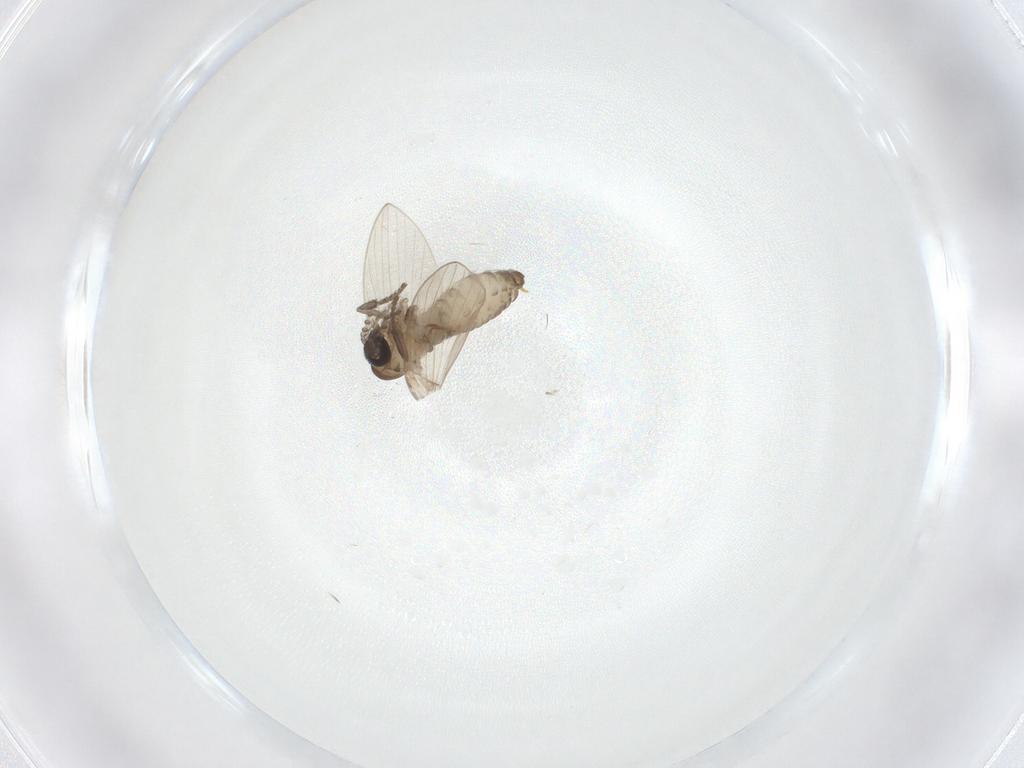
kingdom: Animalia
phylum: Arthropoda
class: Insecta
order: Diptera
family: Psychodidae
